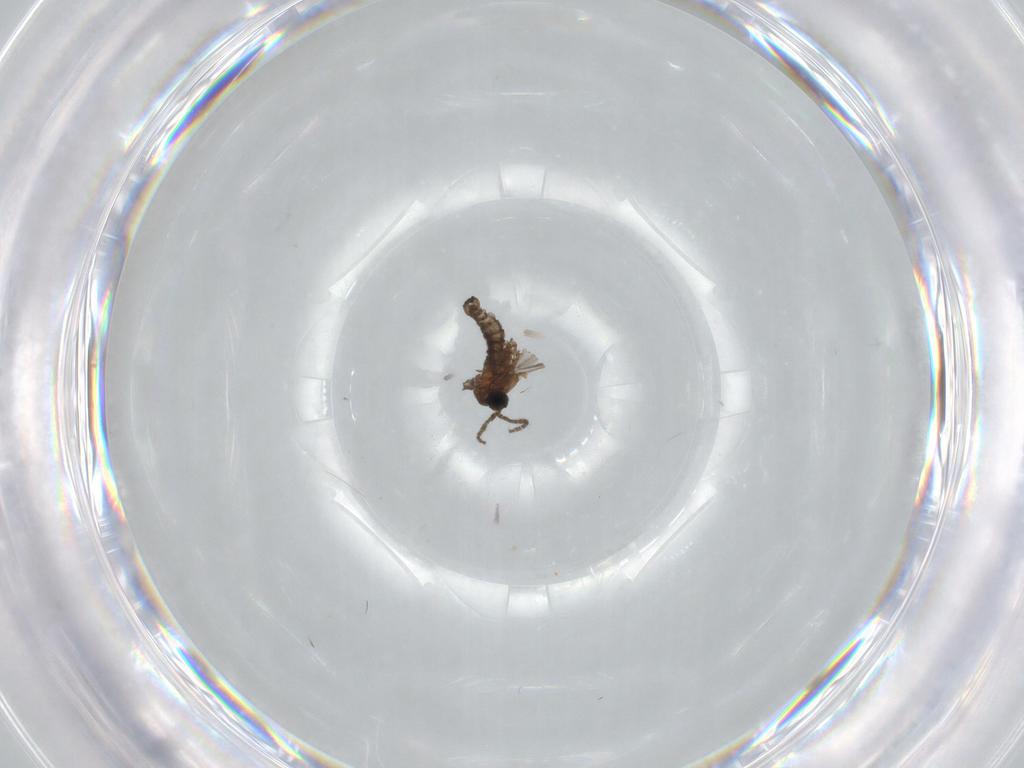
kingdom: Animalia
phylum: Arthropoda
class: Insecta
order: Diptera
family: Sciaridae
